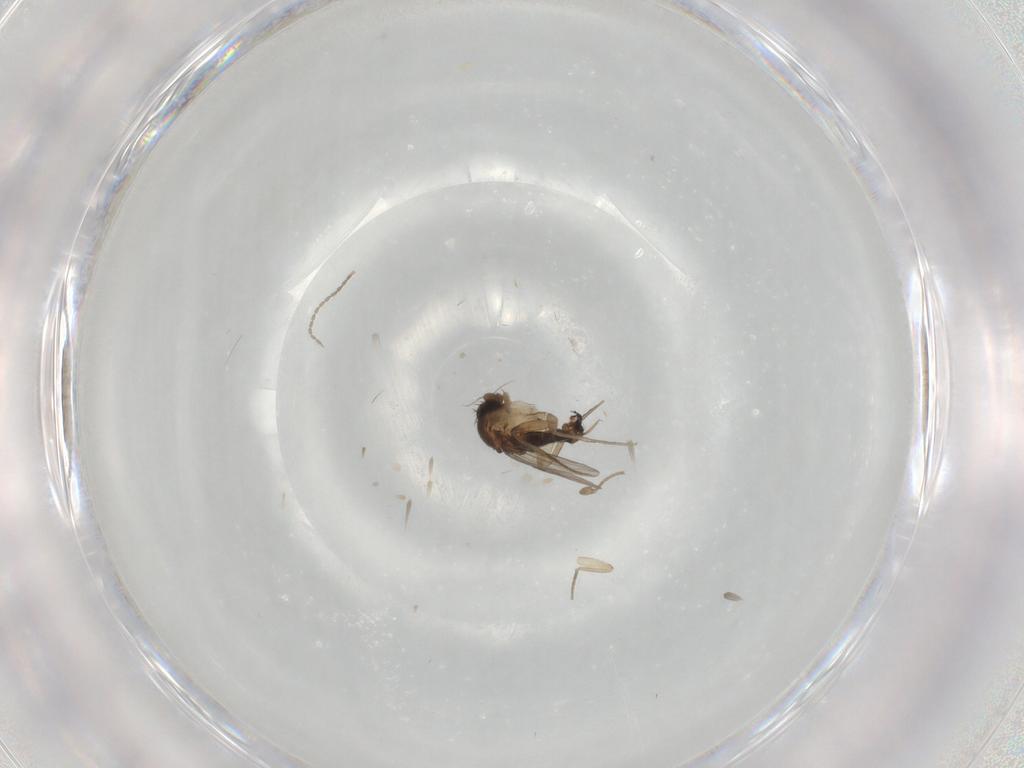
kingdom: Animalia
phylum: Arthropoda
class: Insecta
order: Diptera
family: Phoridae
